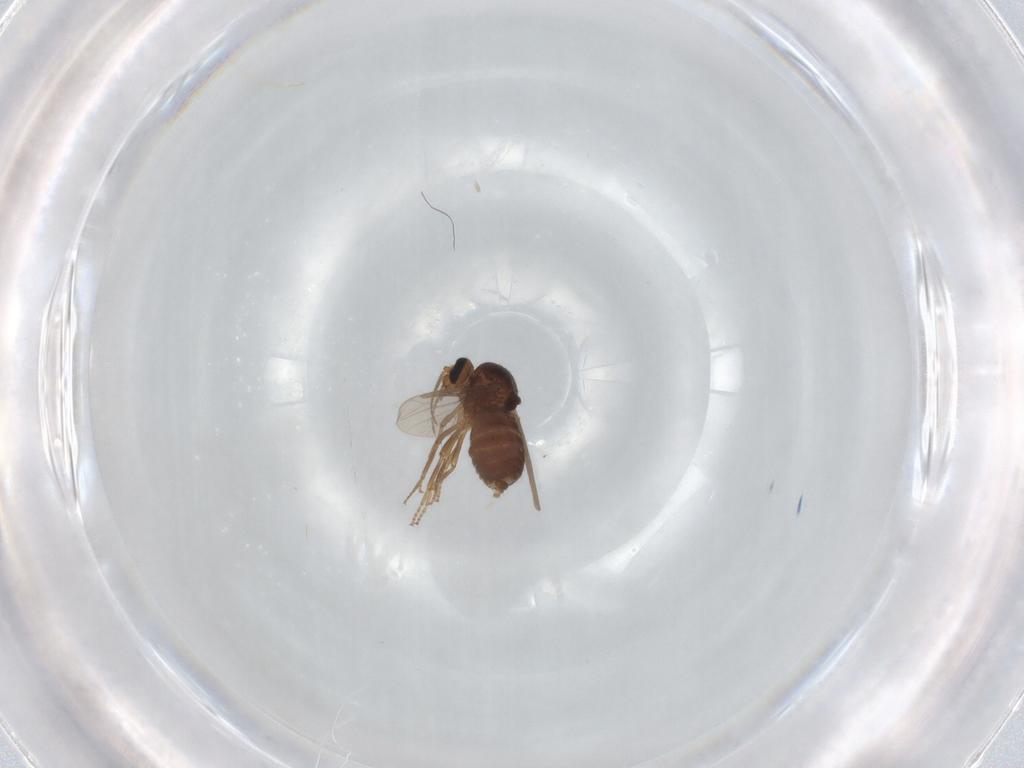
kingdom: Animalia
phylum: Arthropoda
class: Insecta
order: Diptera
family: Ceratopogonidae
